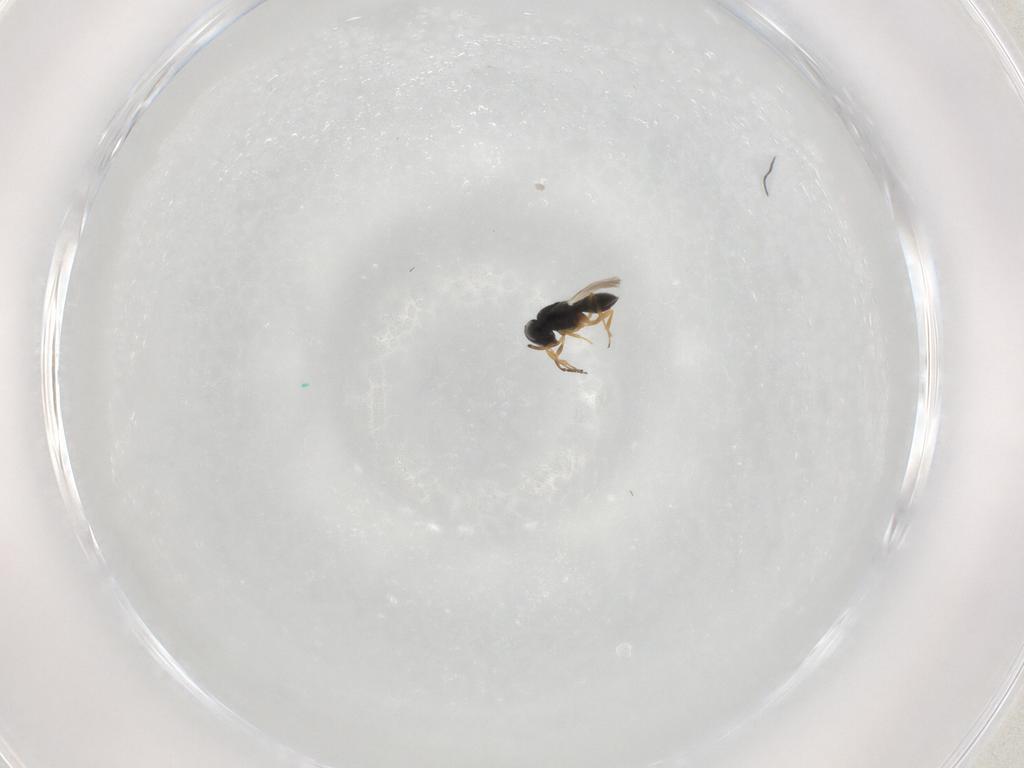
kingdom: Animalia
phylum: Arthropoda
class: Insecta
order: Hymenoptera
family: Scelionidae
